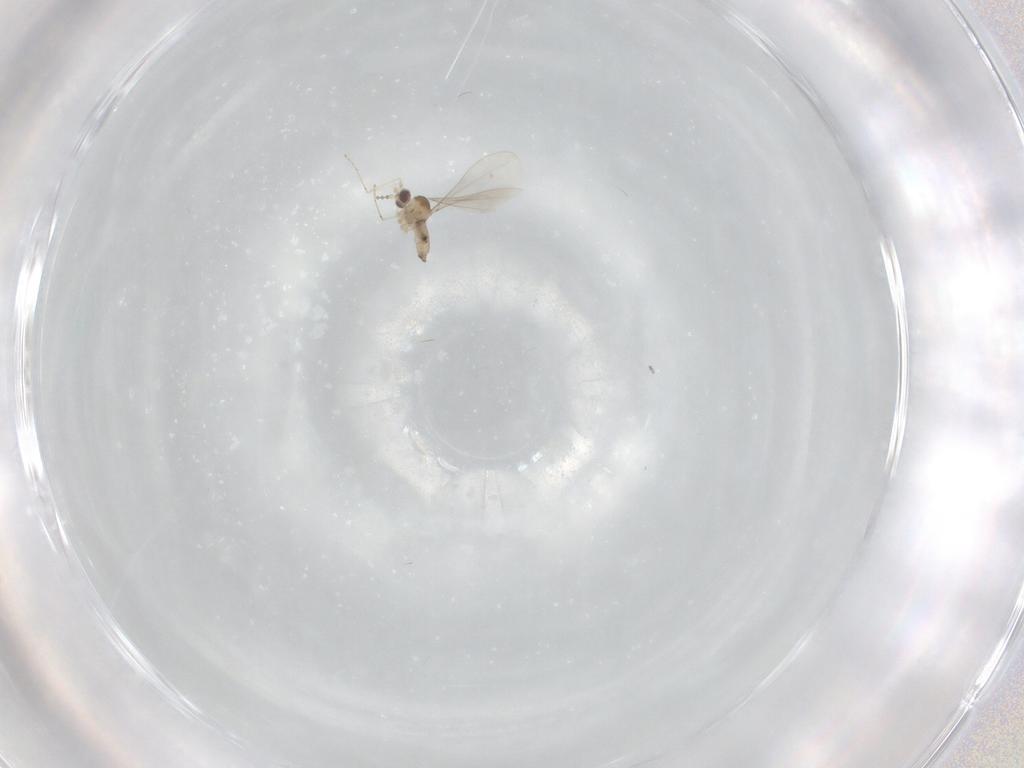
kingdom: Animalia
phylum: Arthropoda
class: Insecta
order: Diptera
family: Cecidomyiidae
